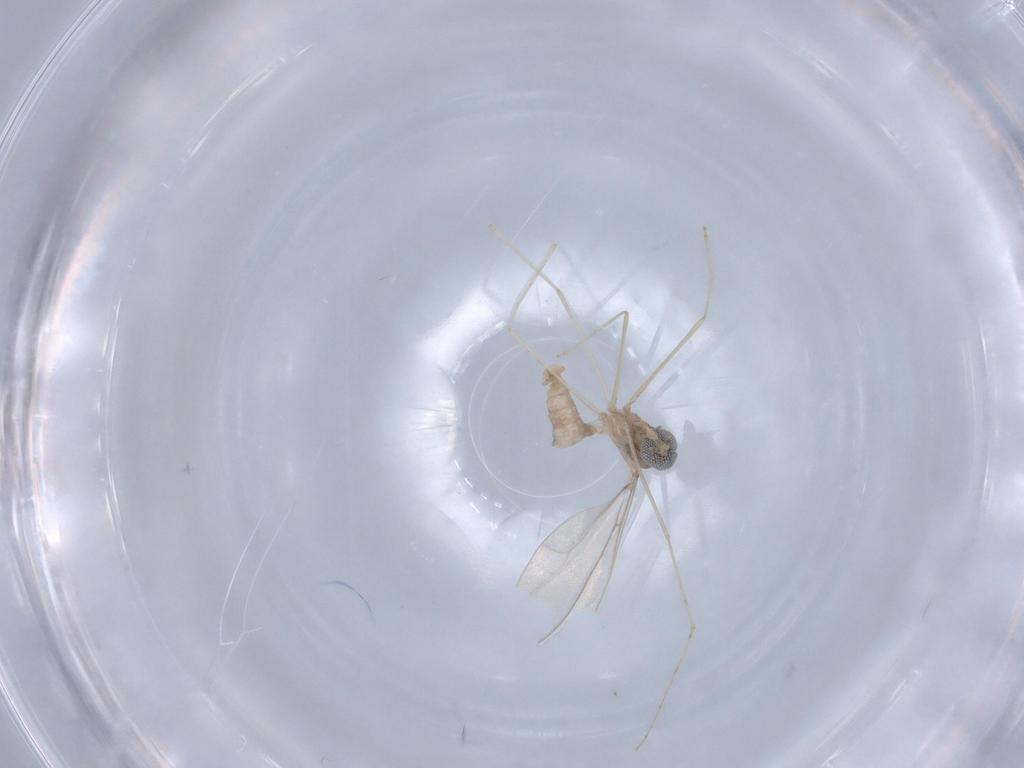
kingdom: Animalia
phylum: Arthropoda
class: Insecta
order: Diptera
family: Cecidomyiidae
